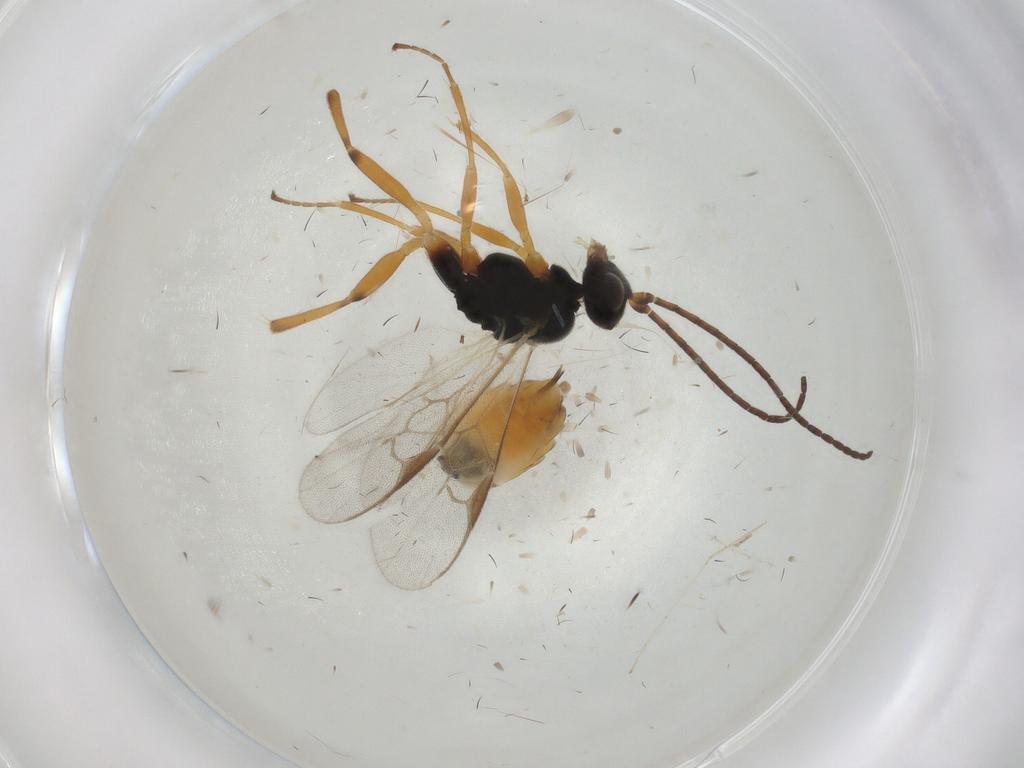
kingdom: Animalia
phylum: Arthropoda
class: Insecta
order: Hymenoptera
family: Braconidae
